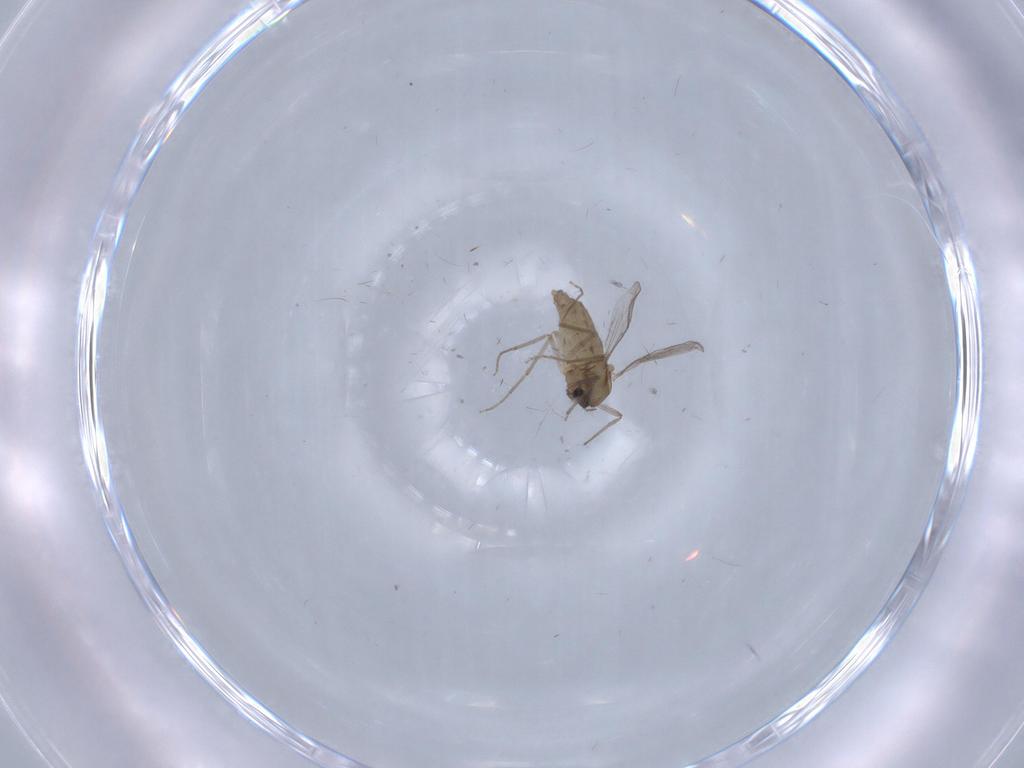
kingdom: Animalia
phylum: Arthropoda
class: Insecta
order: Diptera
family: Chironomidae
